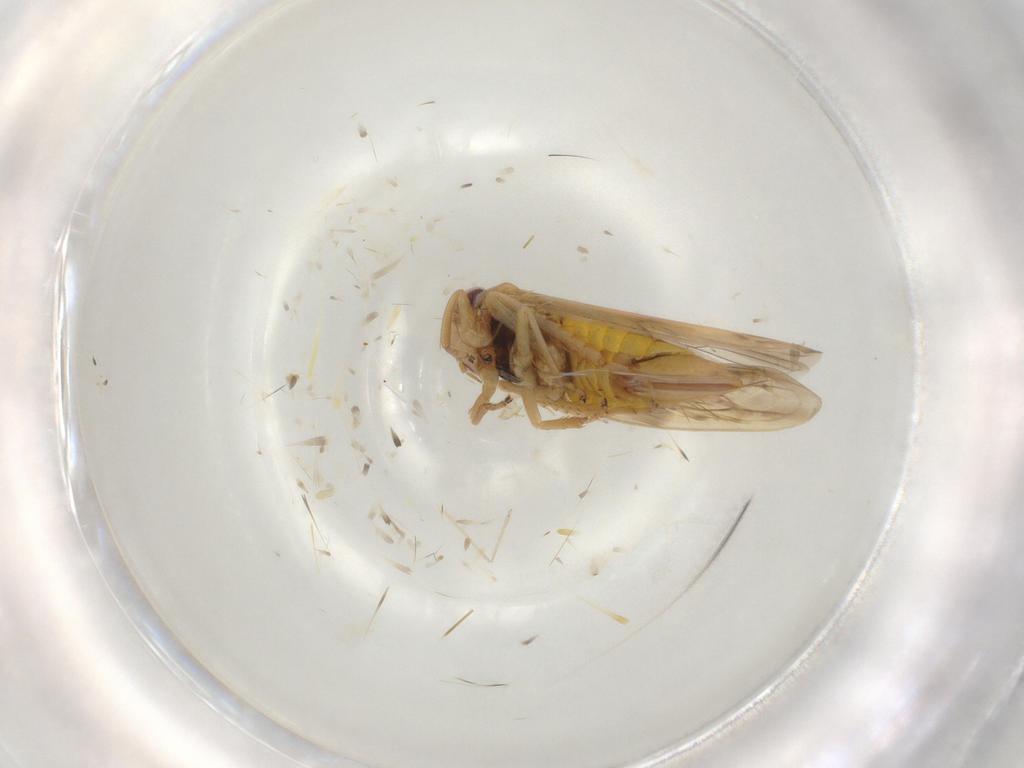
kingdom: Animalia
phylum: Arthropoda
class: Insecta
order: Hemiptera
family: Cicadellidae
